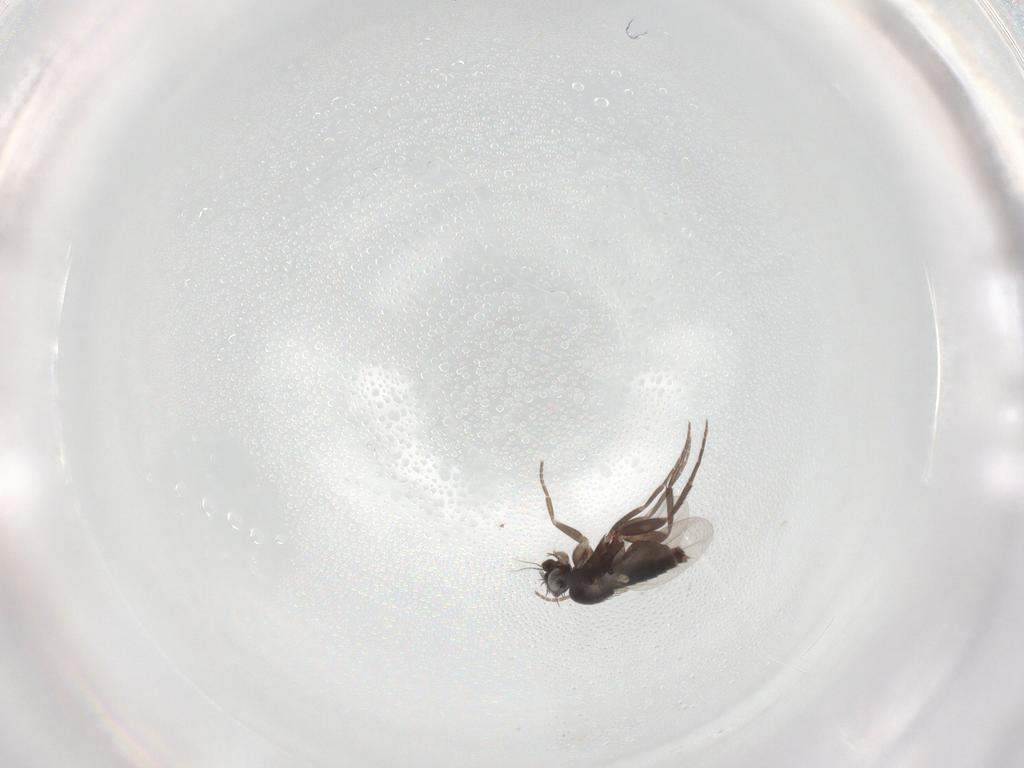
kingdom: Animalia
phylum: Arthropoda
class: Insecta
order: Diptera
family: Phoridae
